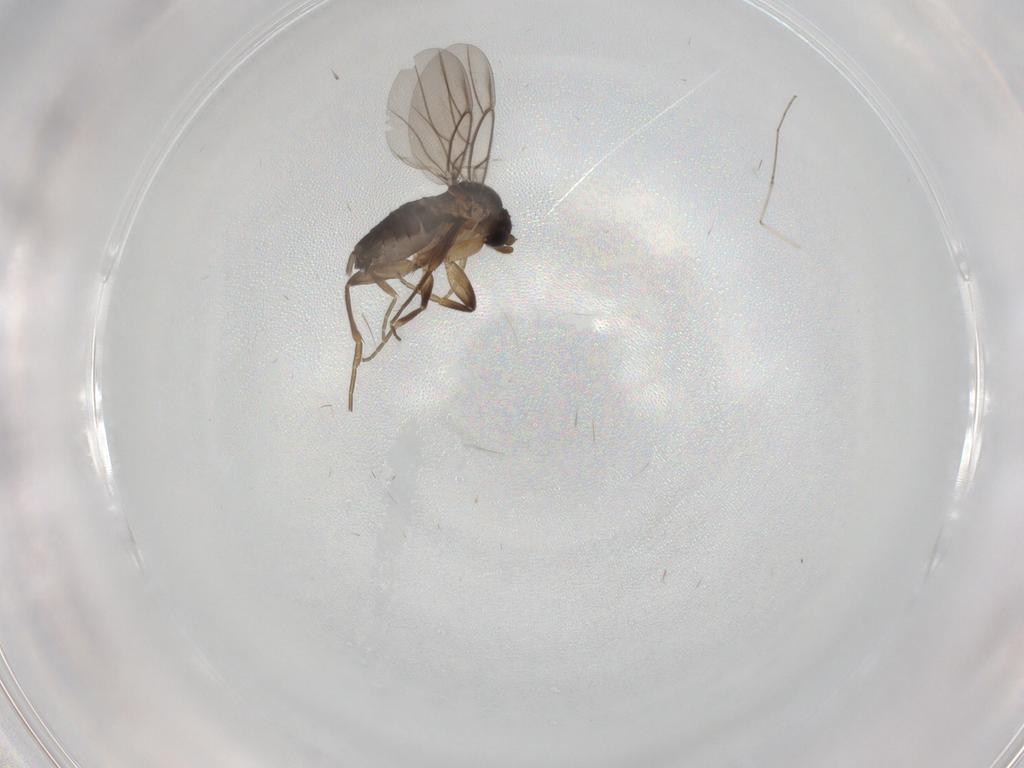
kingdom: Animalia
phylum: Arthropoda
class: Insecta
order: Diptera
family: Phoridae
